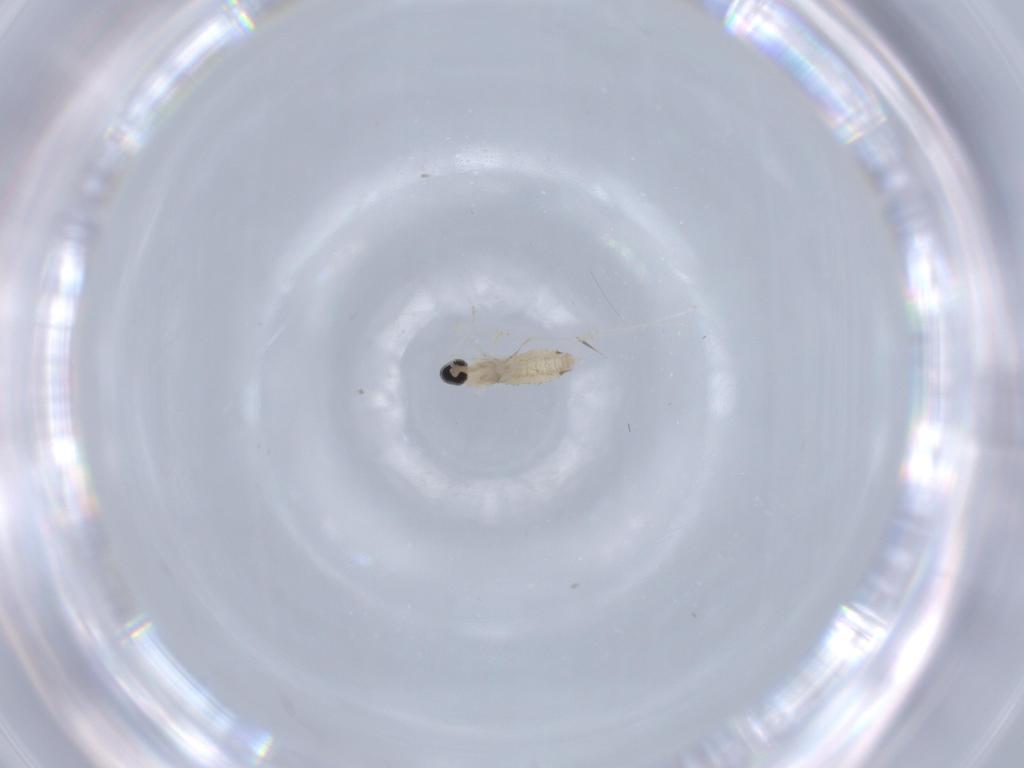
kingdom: Animalia
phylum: Arthropoda
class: Insecta
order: Diptera
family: Cecidomyiidae
